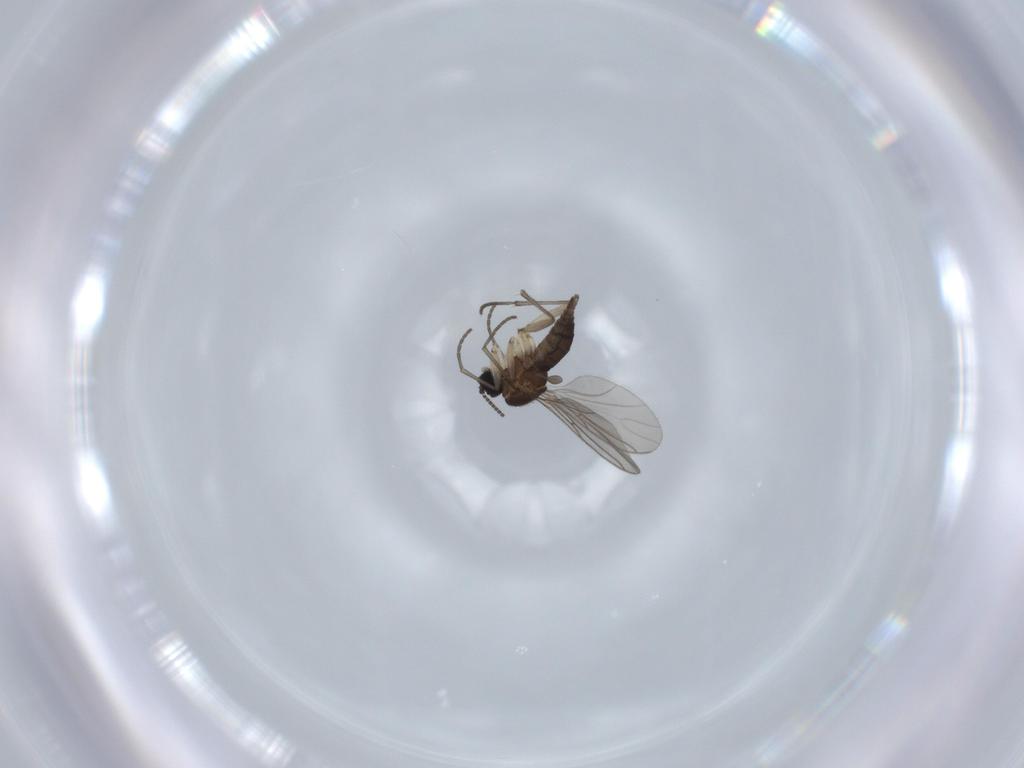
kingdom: Animalia
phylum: Arthropoda
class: Insecta
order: Diptera
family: Sciaridae
